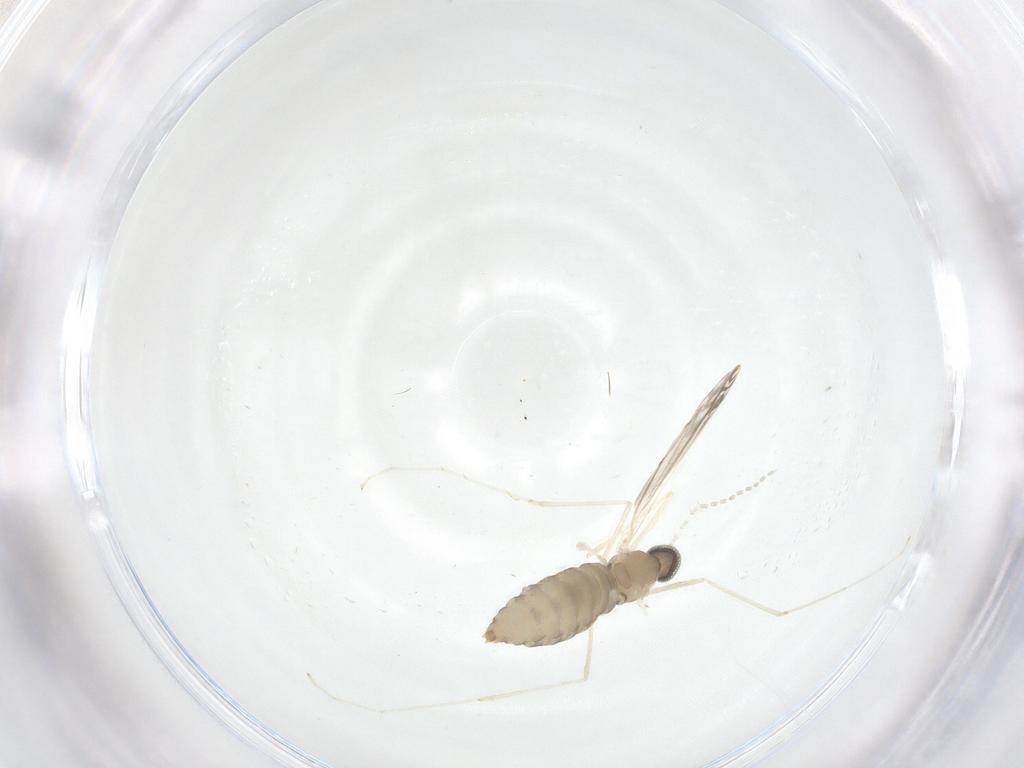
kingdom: Animalia
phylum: Arthropoda
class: Insecta
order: Diptera
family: Cecidomyiidae
